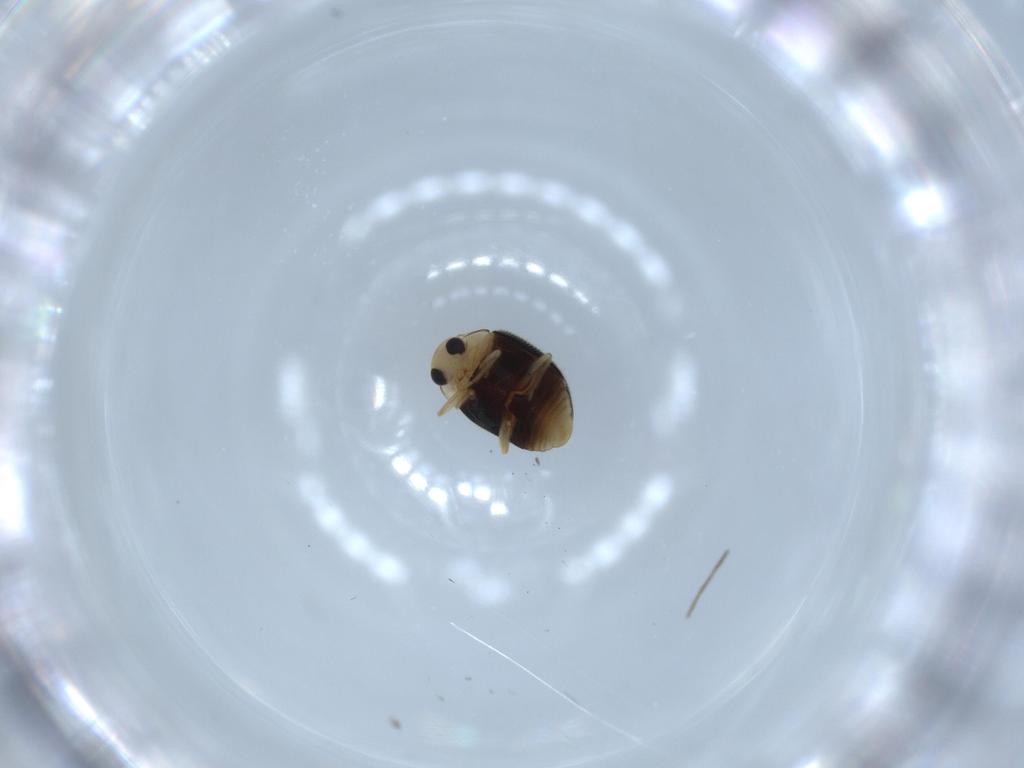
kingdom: Animalia
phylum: Arthropoda
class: Insecta
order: Coleoptera
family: Coccinellidae
